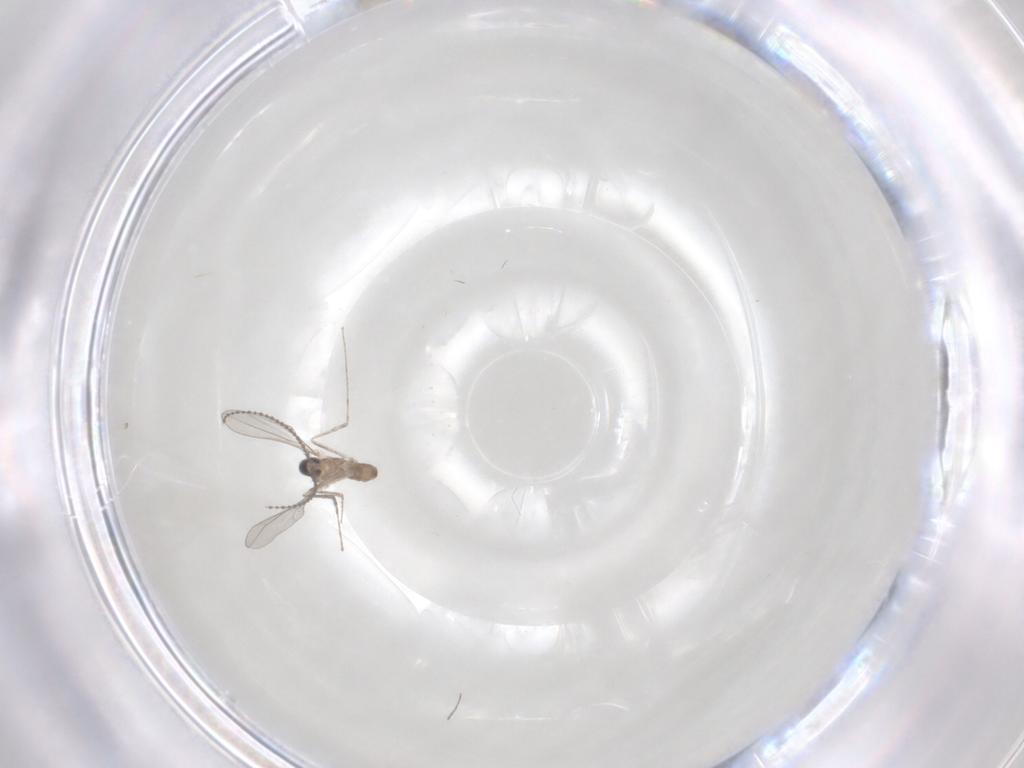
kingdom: Animalia
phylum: Arthropoda
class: Insecta
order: Diptera
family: Cecidomyiidae
